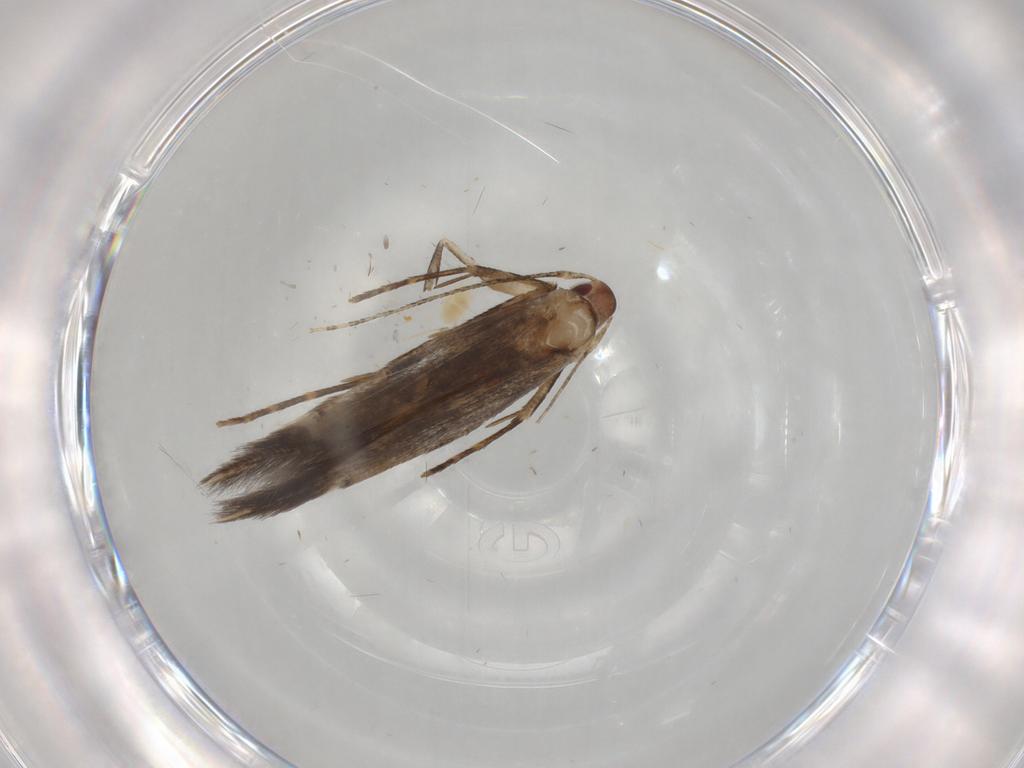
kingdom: Animalia
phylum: Arthropoda
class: Insecta
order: Lepidoptera
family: Cosmopterigidae
